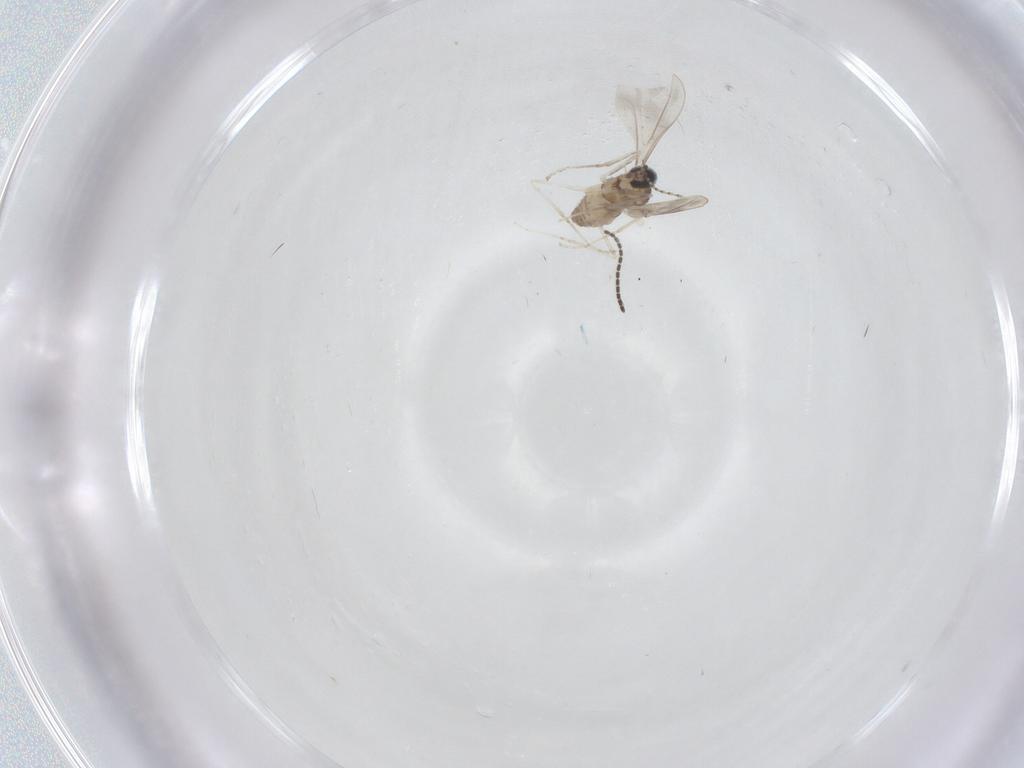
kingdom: Animalia
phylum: Arthropoda
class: Insecta
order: Diptera
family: Cecidomyiidae
